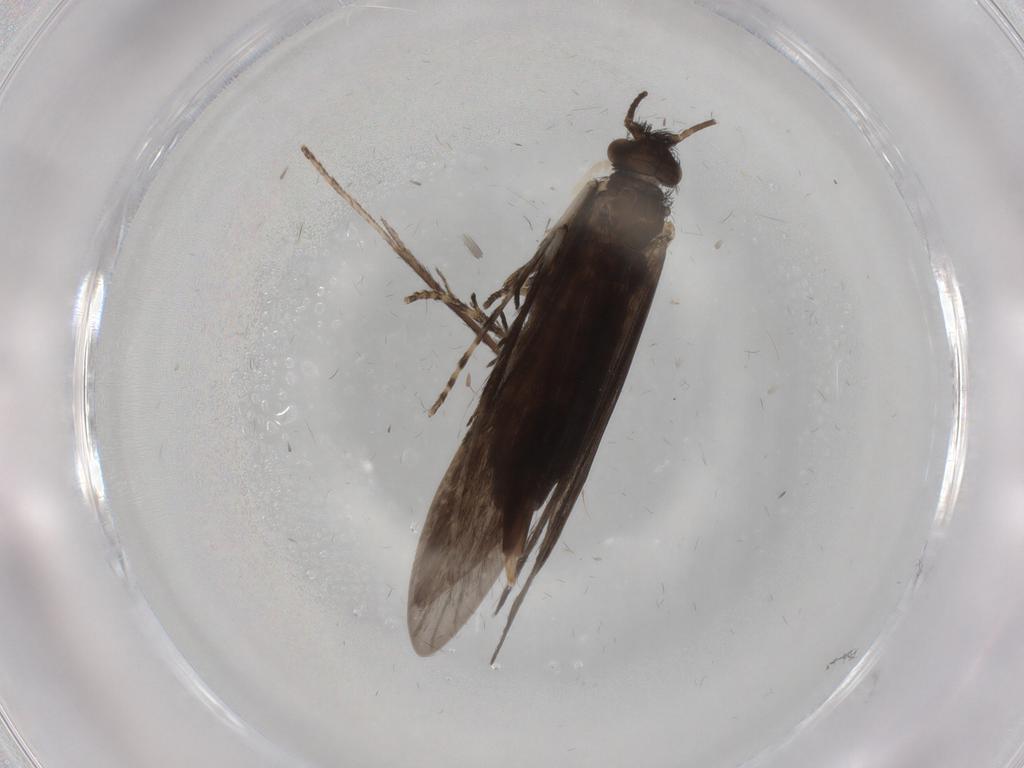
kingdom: Animalia
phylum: Arthropoda
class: Insecta
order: Trichoptera
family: Xiphocentronidae
